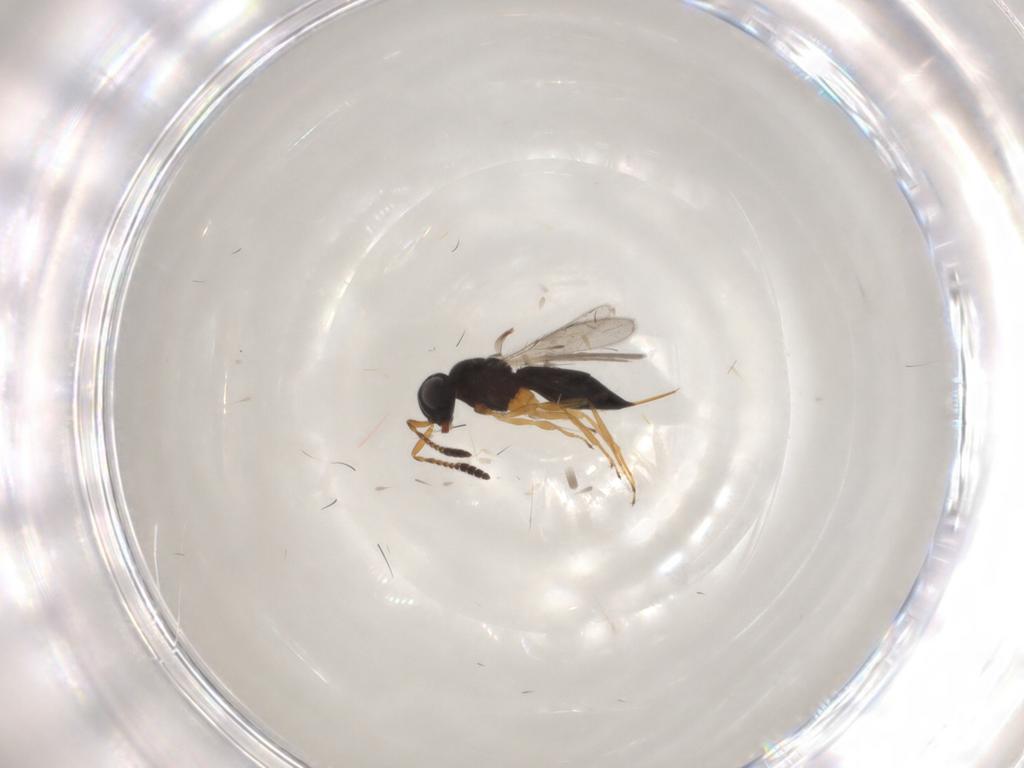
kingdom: Animalia
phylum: Arthropoda
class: Insecta
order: Hymenoptera
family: Scelionidae
